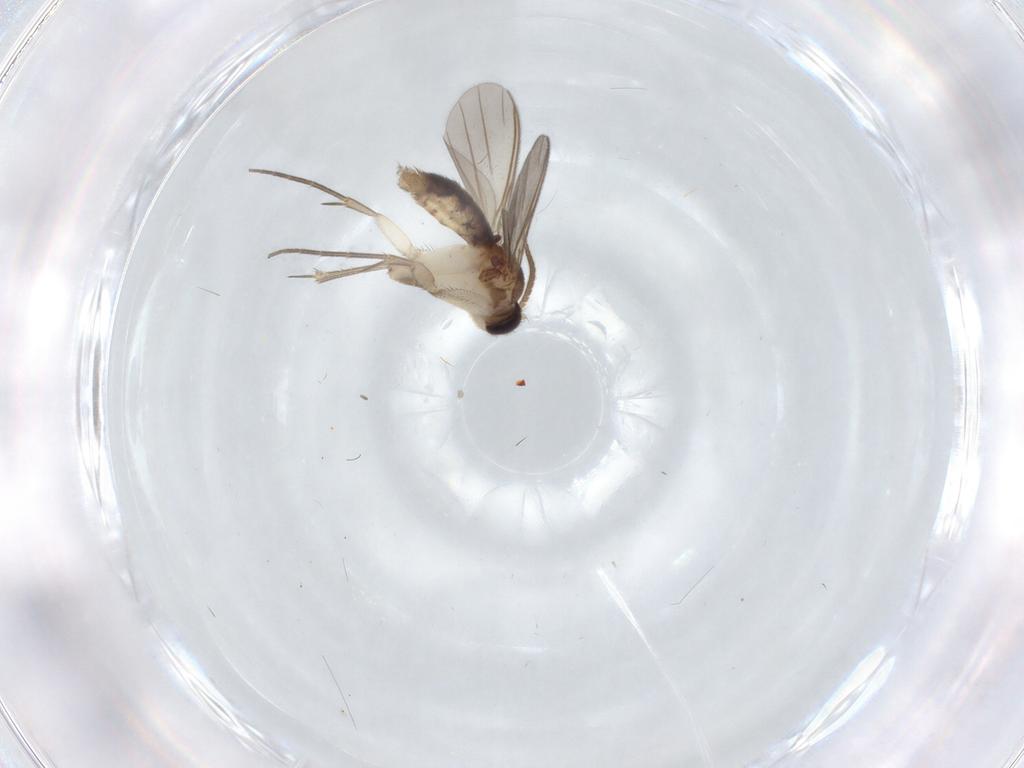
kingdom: Animalia
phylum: Arthropoda
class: Insecta
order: Diptera
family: Mycetophilidae
